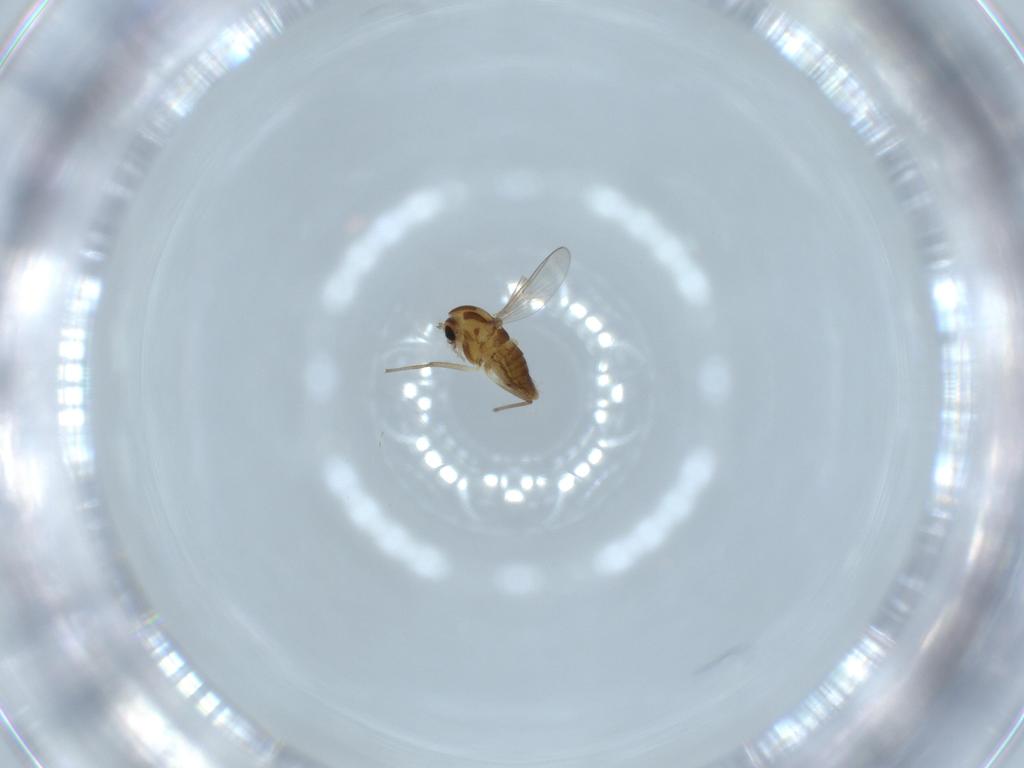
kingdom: Animalia
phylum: Arthropoda
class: Insecta
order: Diptera
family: Chironomidae
